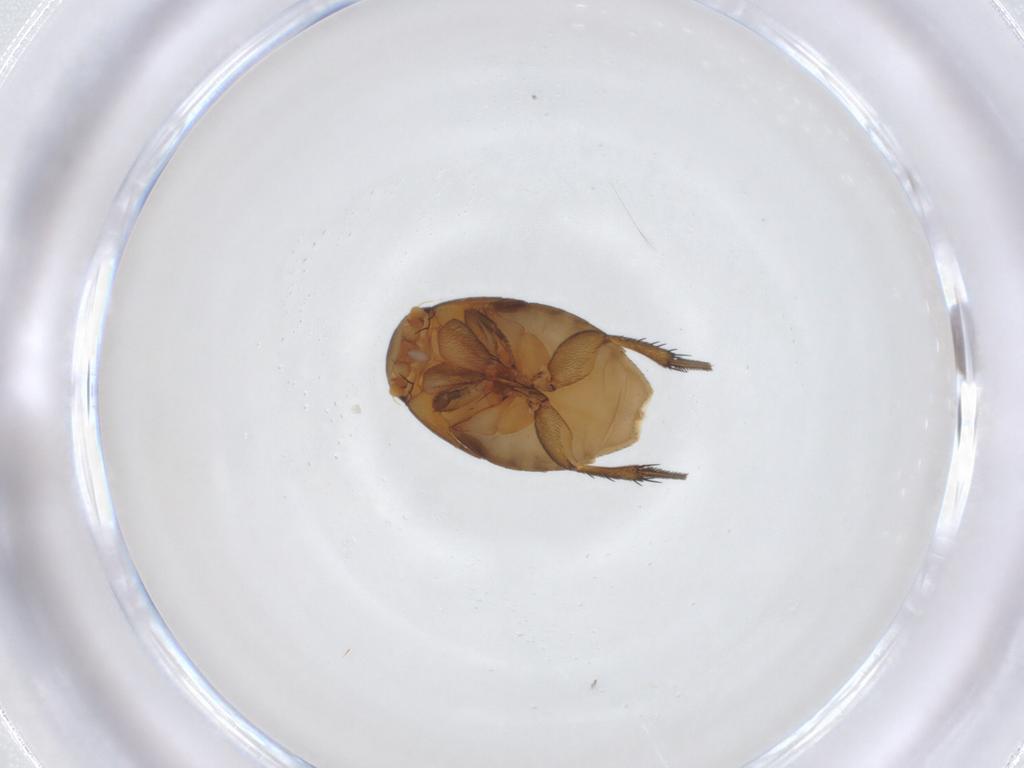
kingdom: Animalia
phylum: Arthropoda
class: Insecta
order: Diptera
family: Phoridae
